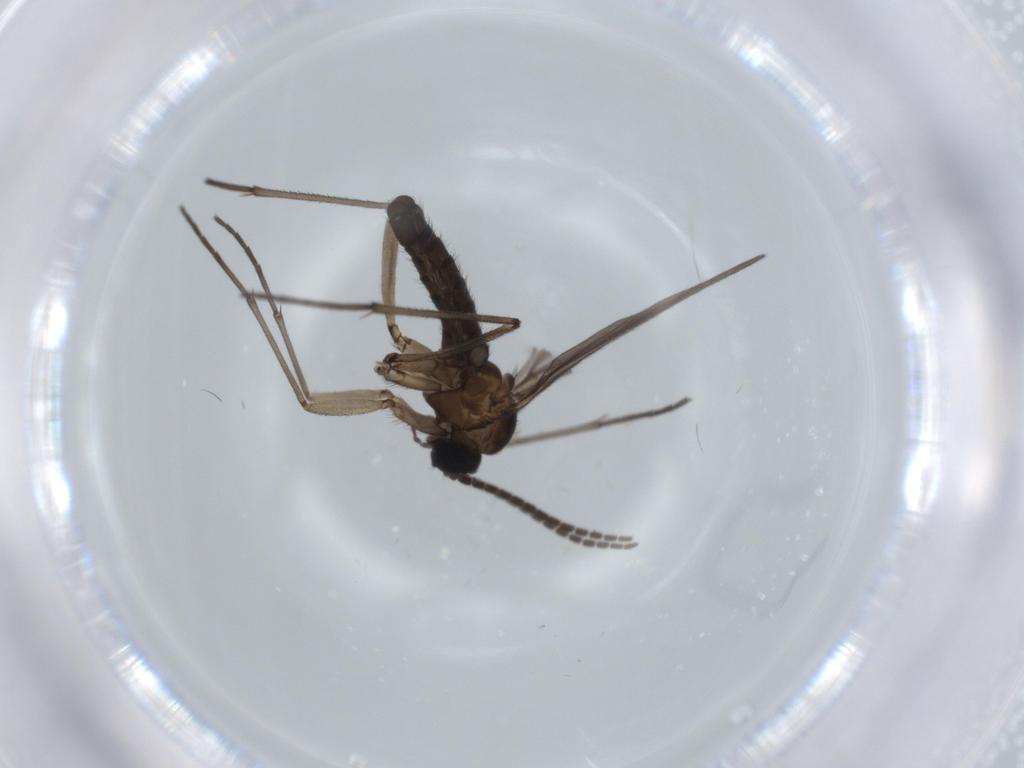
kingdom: Animalia
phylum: Arthropoda
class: Insecta
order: Diptera
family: Sciaridae
